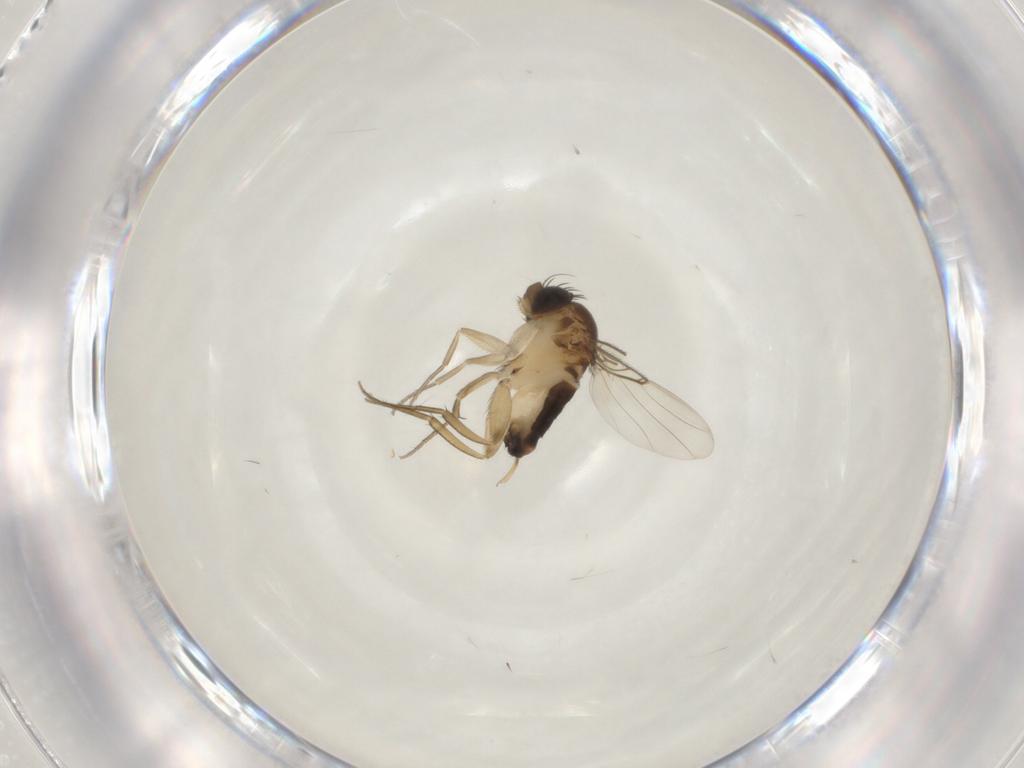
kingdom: Animalia
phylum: Arthropoda
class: Insecta
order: Diptera
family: Phoridae
